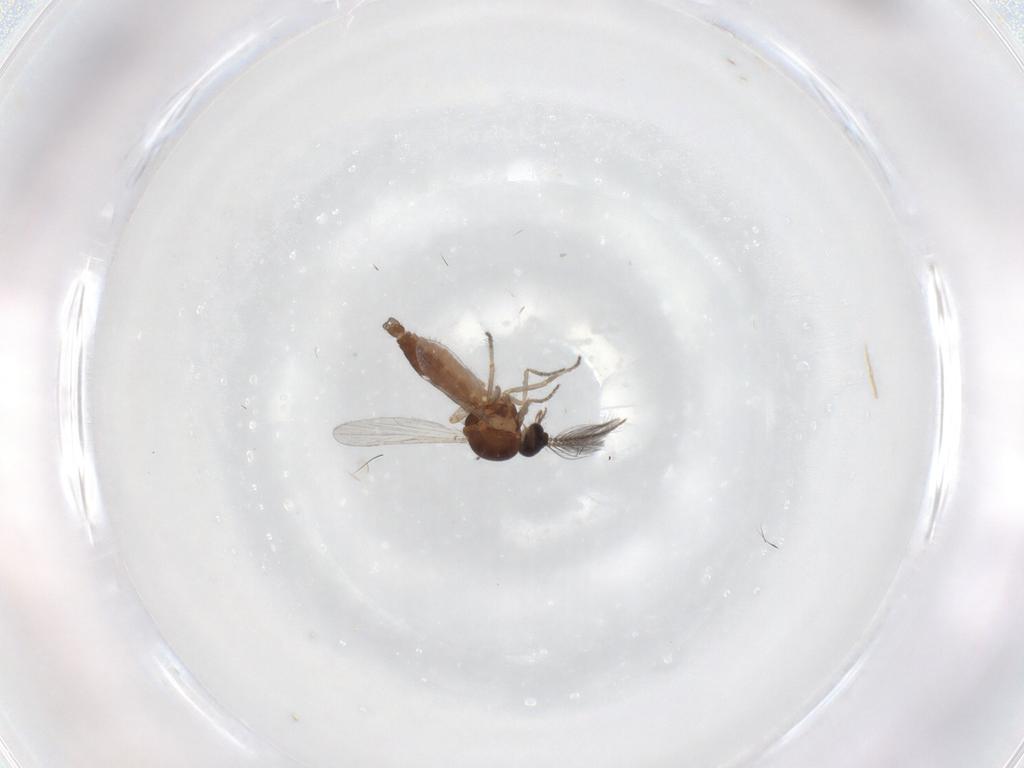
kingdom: Animalia
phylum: Arthropoda
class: Insecta
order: Diptera
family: Ceratopogonidae
